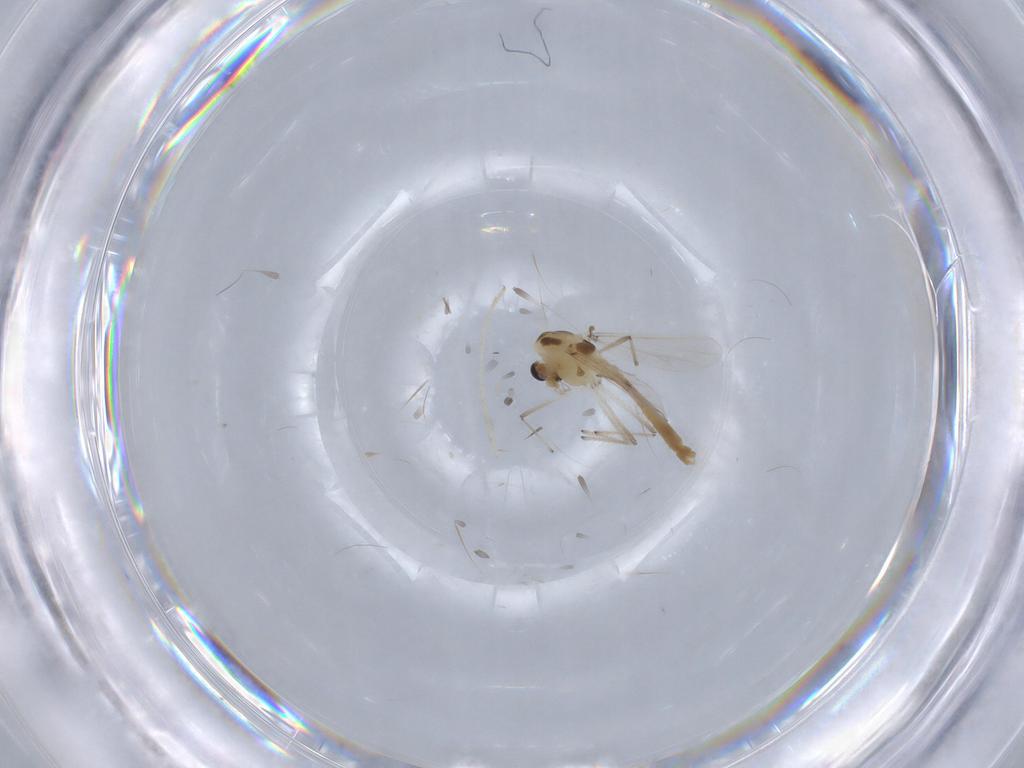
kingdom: Animalia
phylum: Arthropoda
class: Insecta
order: Diptera
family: Chironomidae
